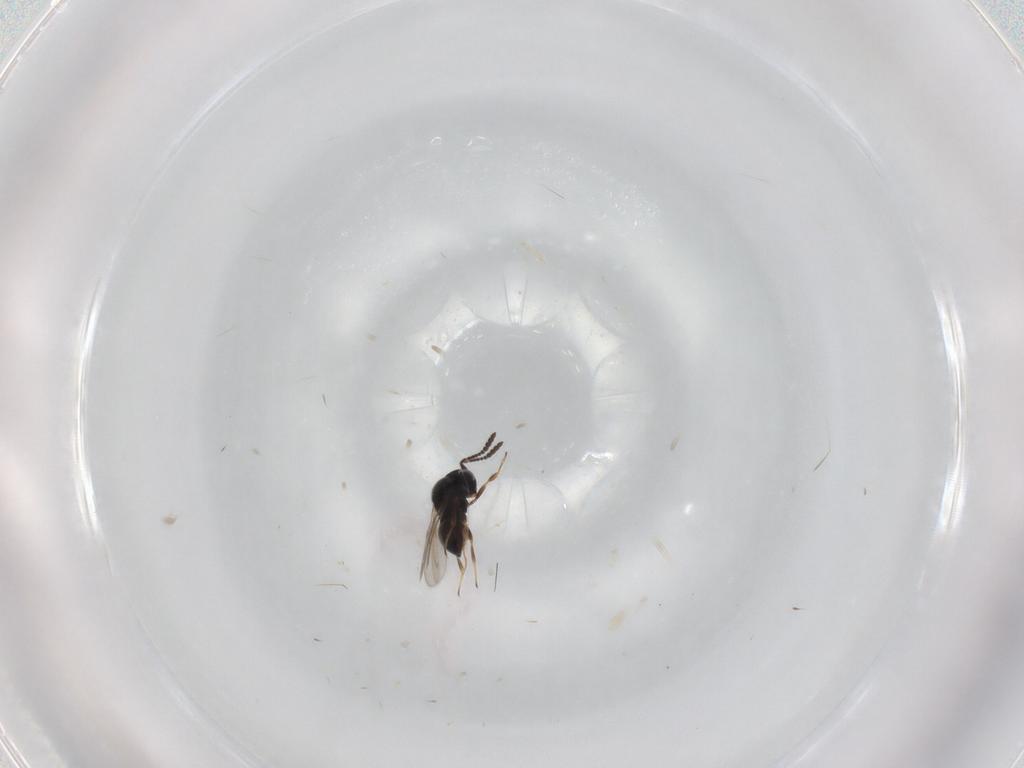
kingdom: Animalia
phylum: Arthropoda
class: Insecta
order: Hymenoptera
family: Scelionidae
